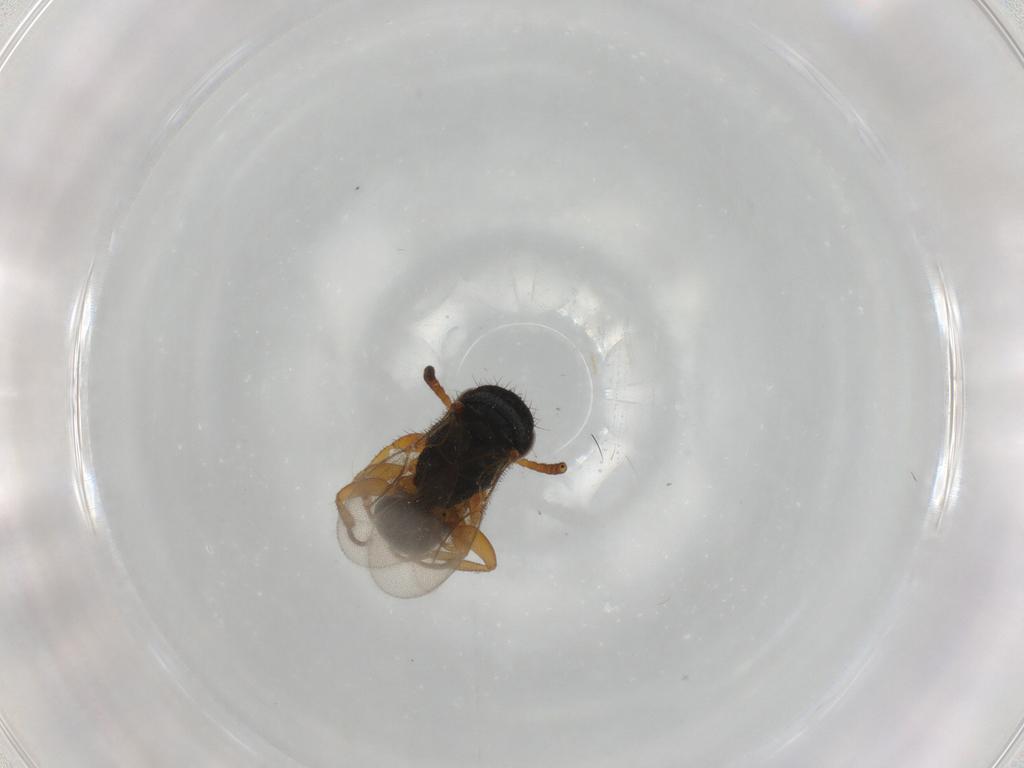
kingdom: Animalia
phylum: Arthropoda
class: Insecta
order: Hymenoptera
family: Bethylidae
